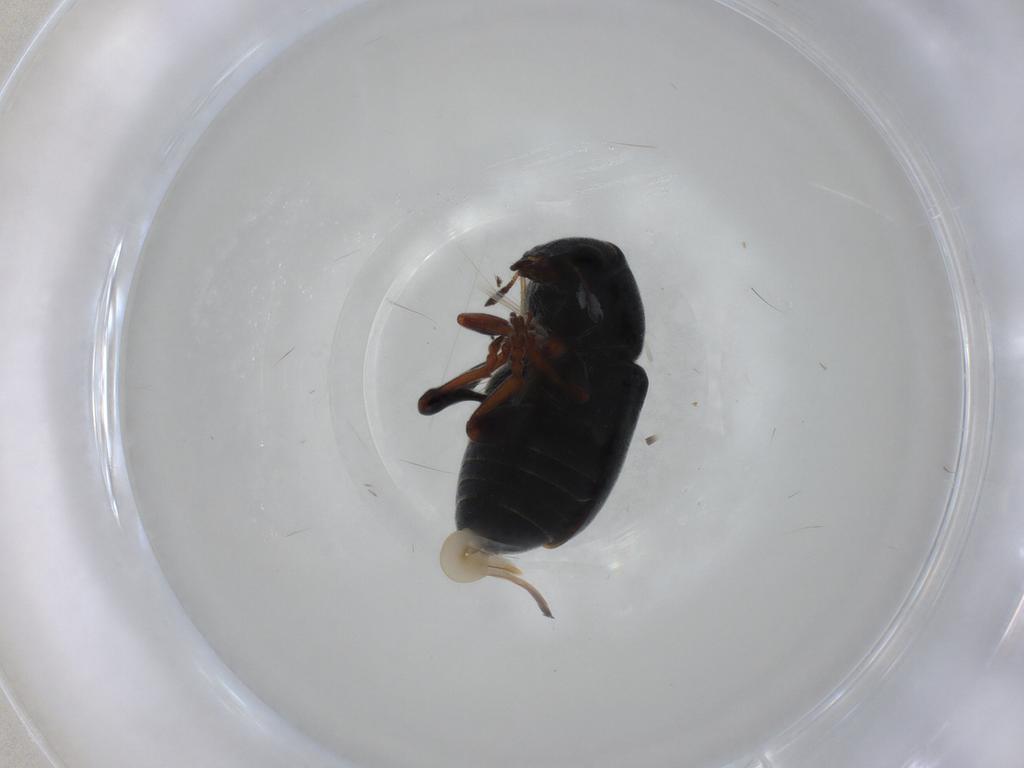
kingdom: Animalia
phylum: Arthropoda
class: Insecta
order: Coleoptera
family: Anthribidae
